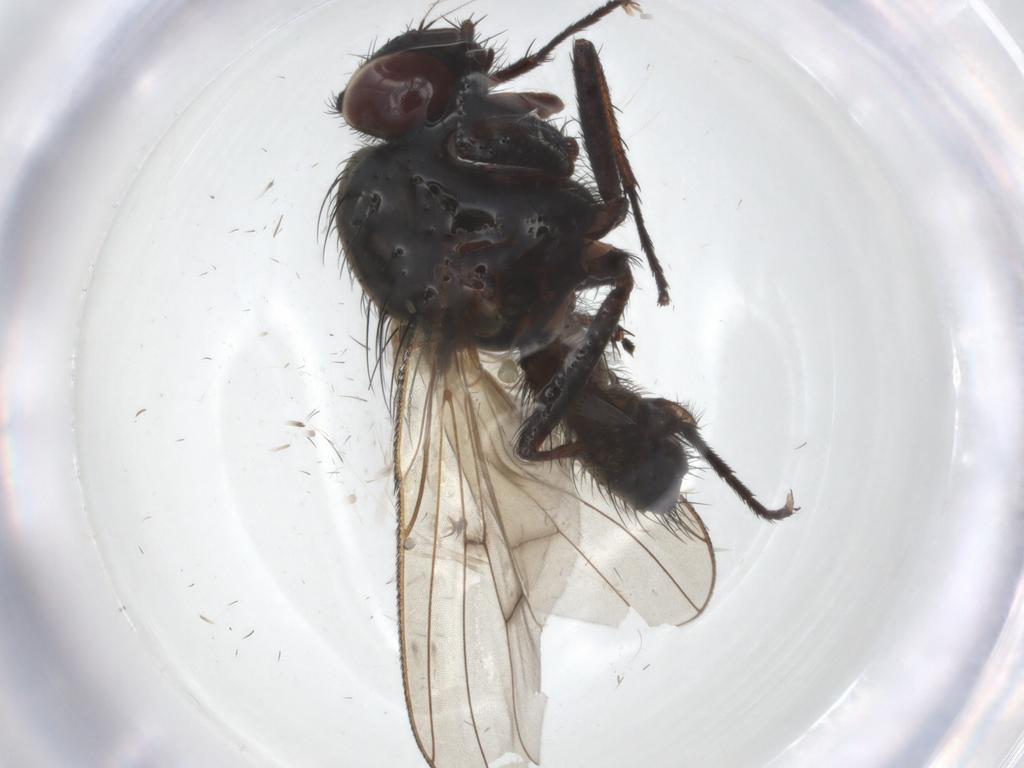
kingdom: Animalia
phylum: Arthropoda
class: Insecta
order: Diptera
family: Anthomyiidae
